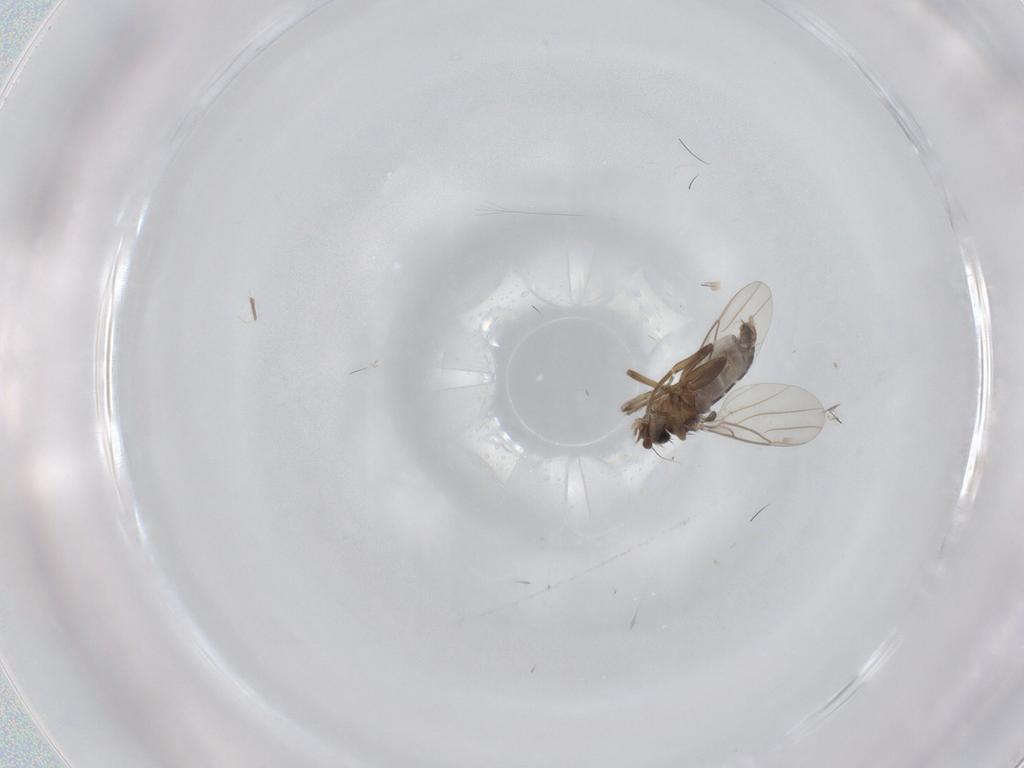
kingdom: Animalia
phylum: Arthropoda
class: Insecta
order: Diptera
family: Phoridae
